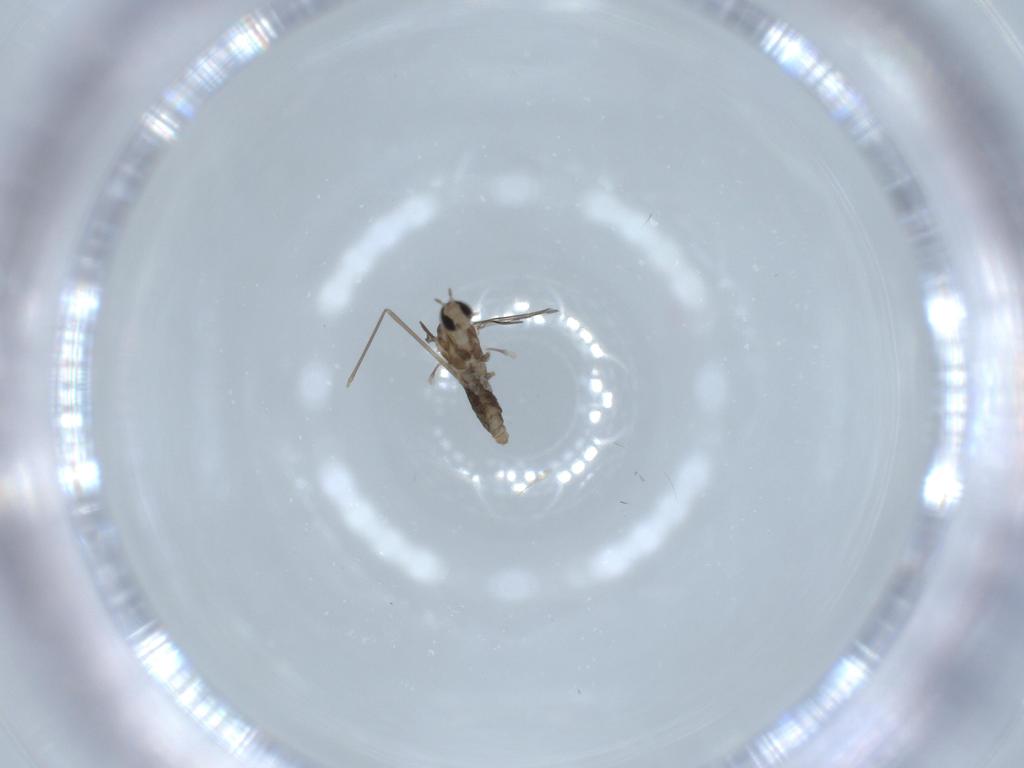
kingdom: Animalia
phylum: Arthropoda
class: Insecta
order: Diptera
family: Cecidomyiidae
